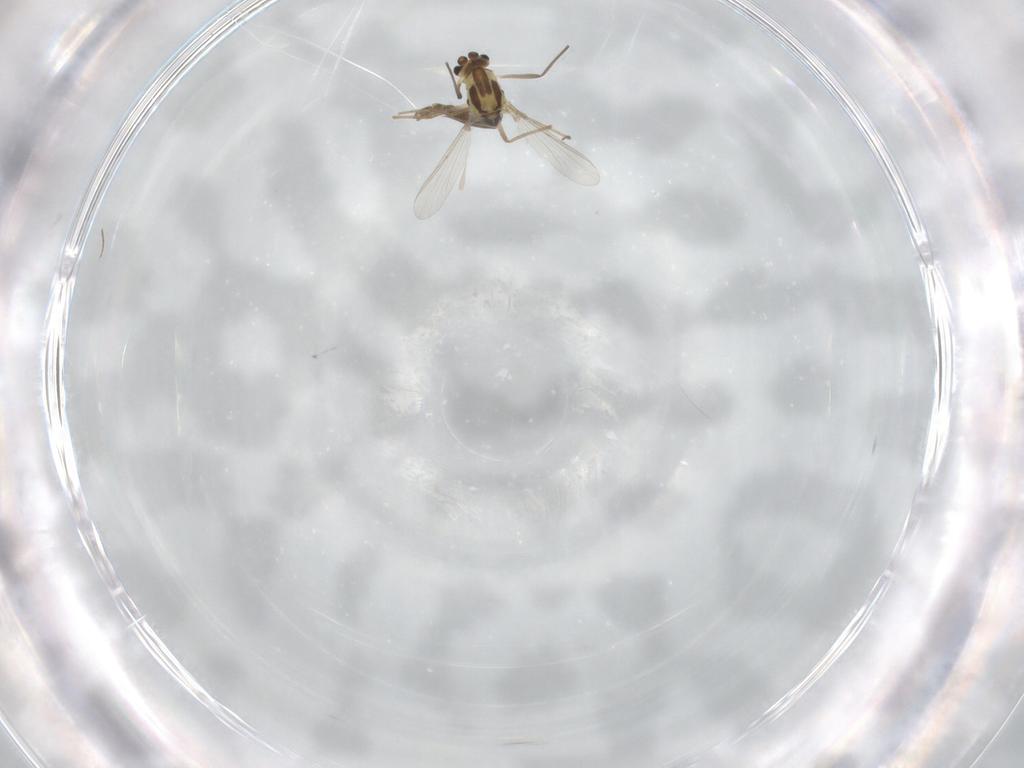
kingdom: Animalia
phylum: Arthropoda
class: Insecta
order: Diptera
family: Chironomidae
